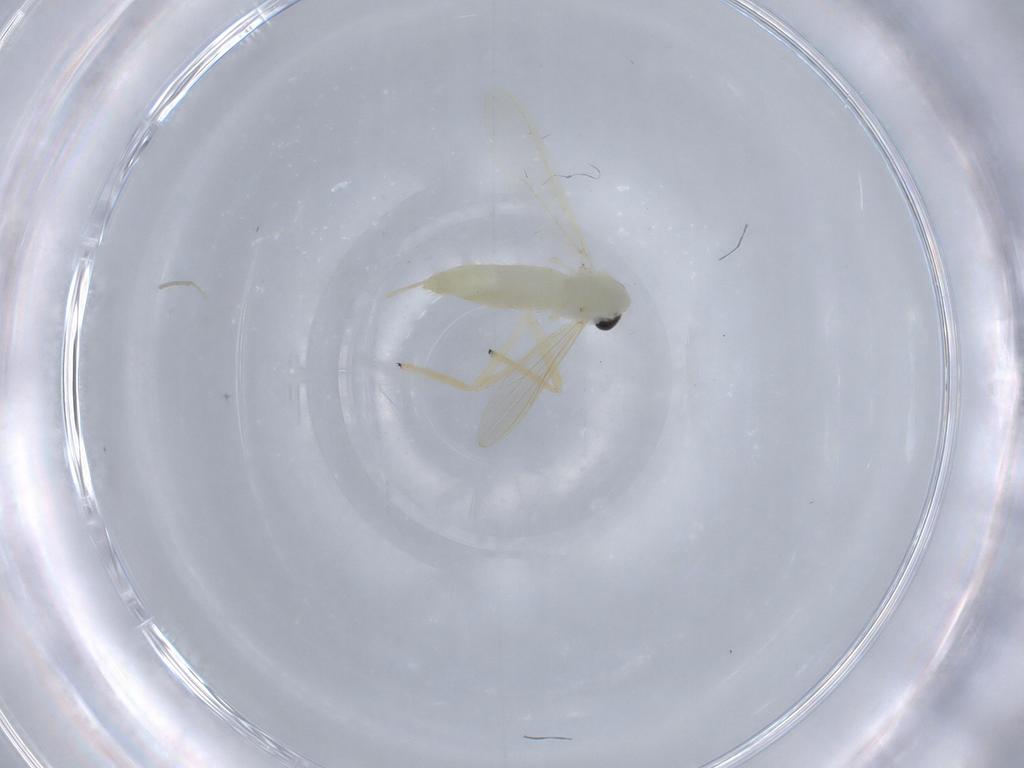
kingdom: Animalia
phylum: Arthropoda
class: Insecta
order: Diptera
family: Chironomidae
